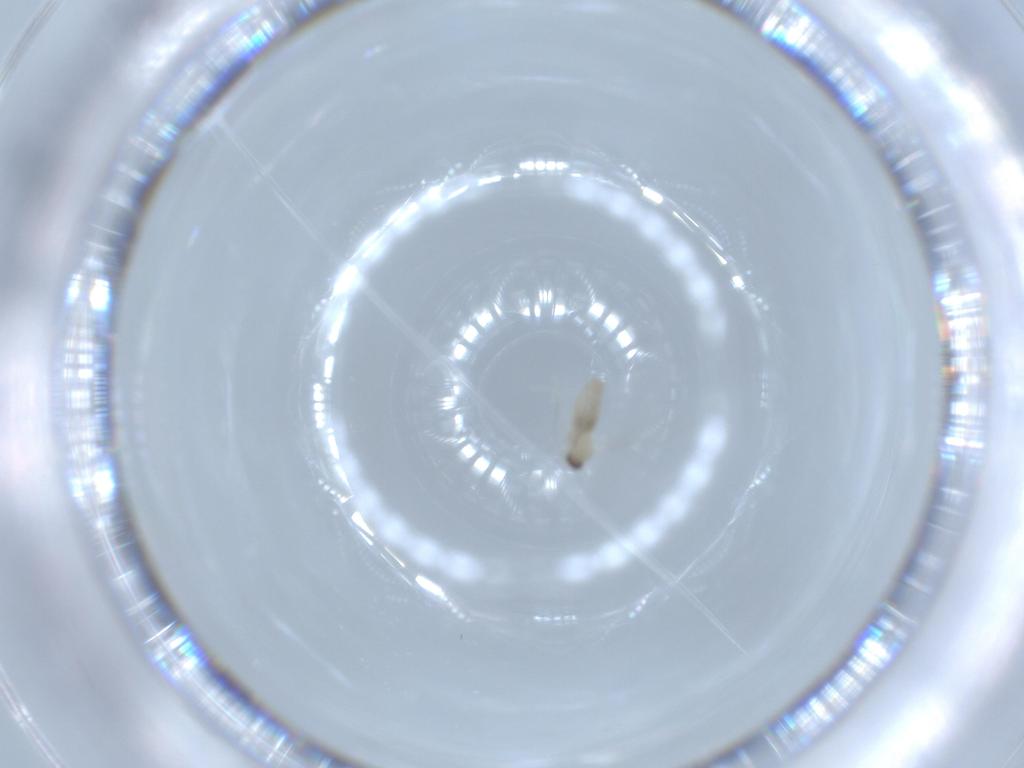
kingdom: Animalia
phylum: Arthropoda
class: Insecta
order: Diptera
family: Cecidomyiidae
